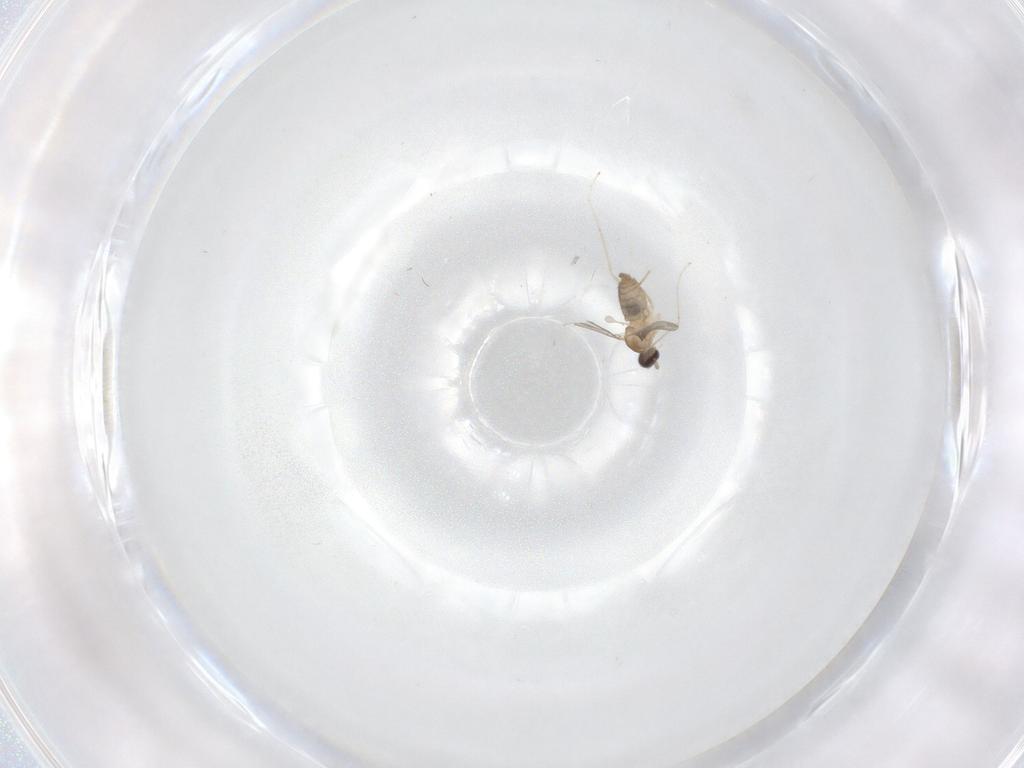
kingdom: Animalia
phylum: Arthropoda
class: Insecta
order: Diptera
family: Cecidomyiidae
